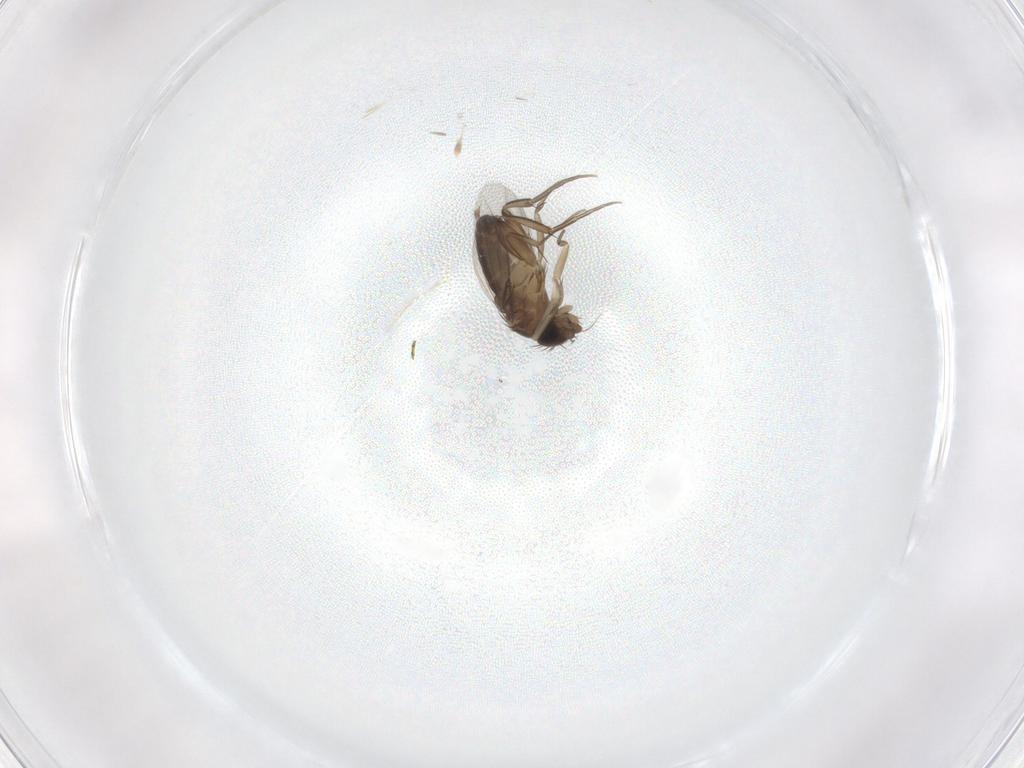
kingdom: Animalia
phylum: Arthropoda
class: Insecta
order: Diptera
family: Phoridae
